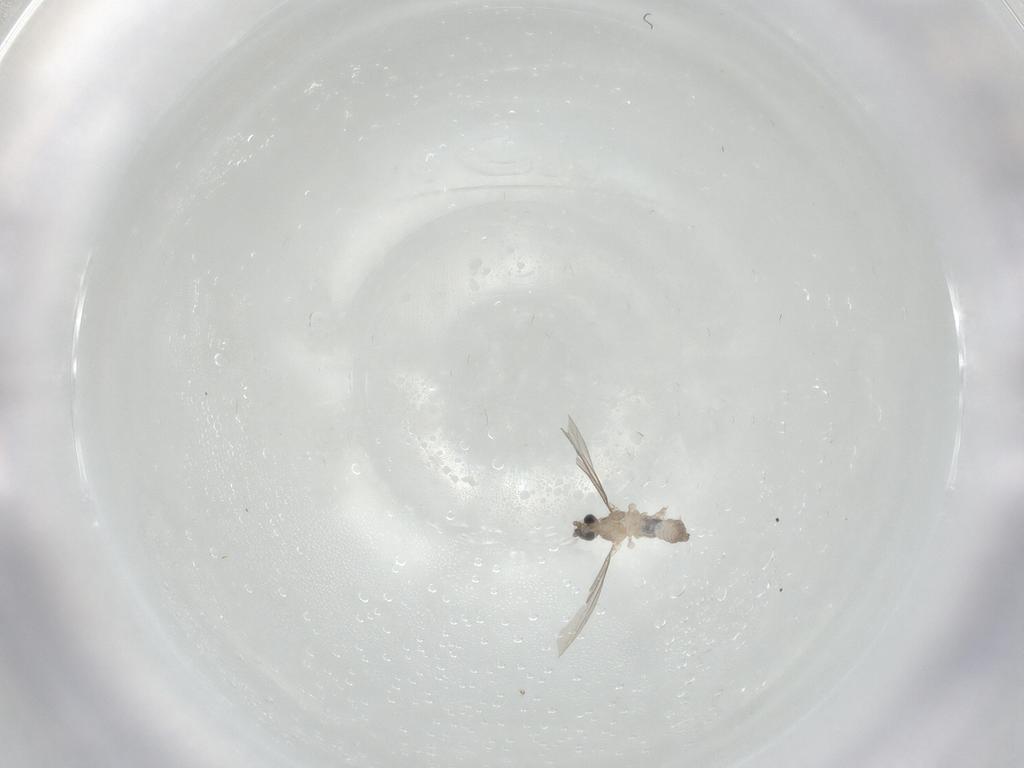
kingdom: Animalia
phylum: Arthropoda
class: Insecta
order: Diptera
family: Cecidomyiidae
